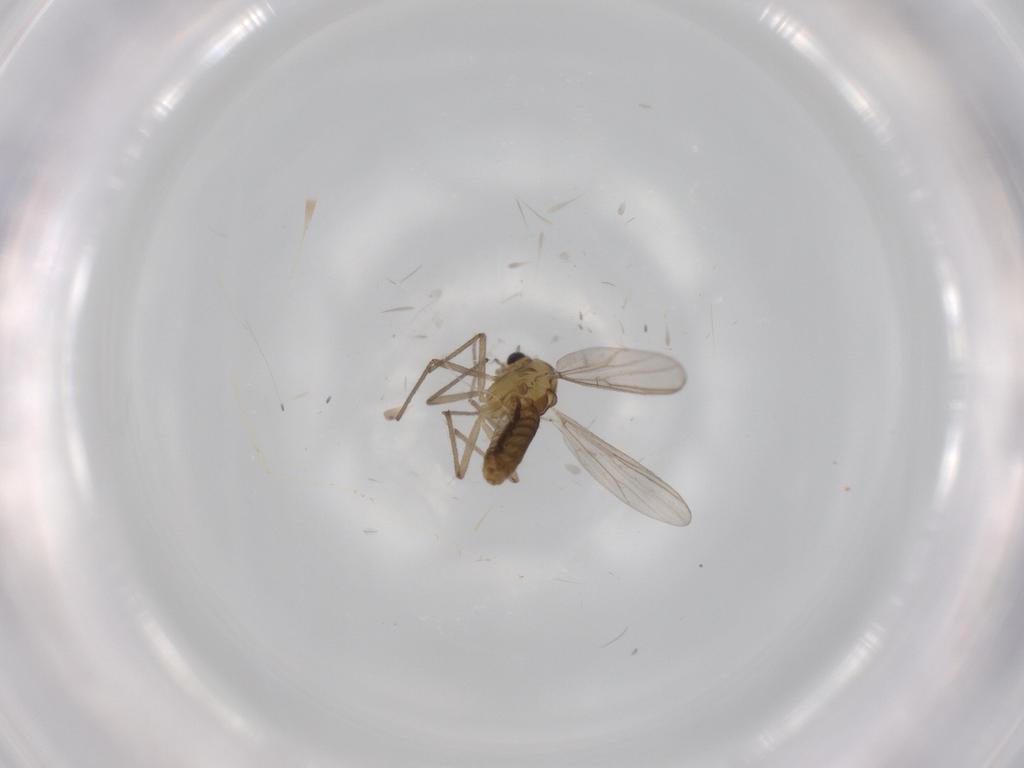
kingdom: Animalia
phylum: Arthropoda
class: Insecta
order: Diptera
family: Chironomidae
